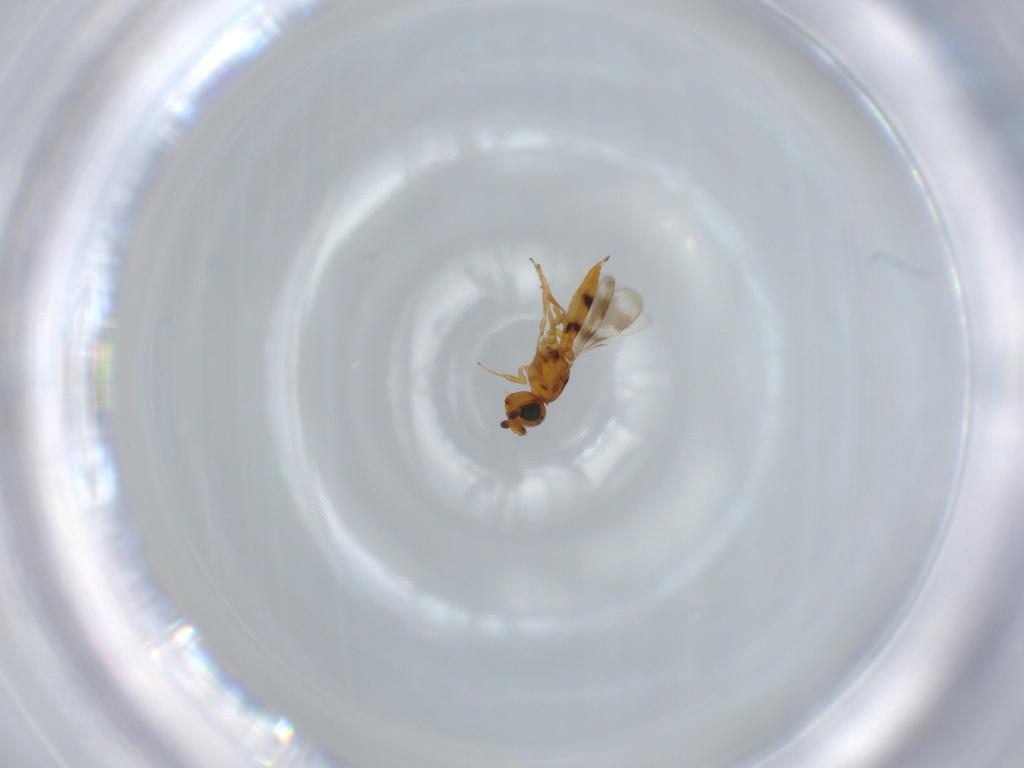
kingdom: Animalia
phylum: Arthropoda
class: Insecta
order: Hymenoptera
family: Scelionidae
